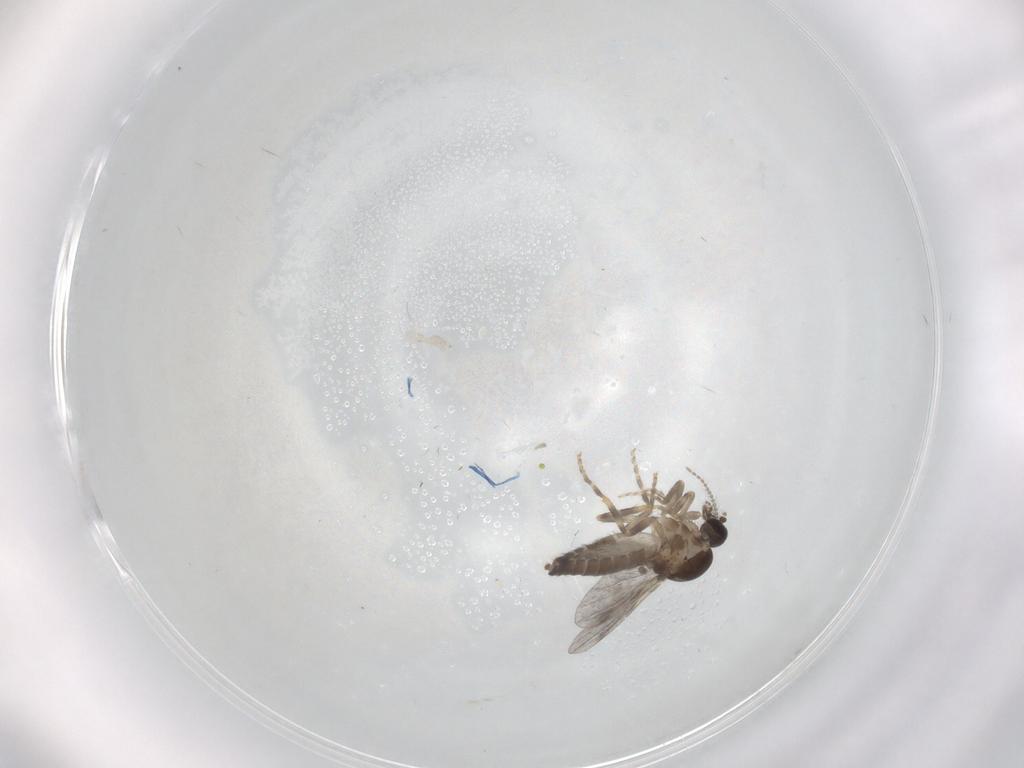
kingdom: Animalia
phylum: Arthropoda
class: Insecta
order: Diptera
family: Ceratopogonidae
